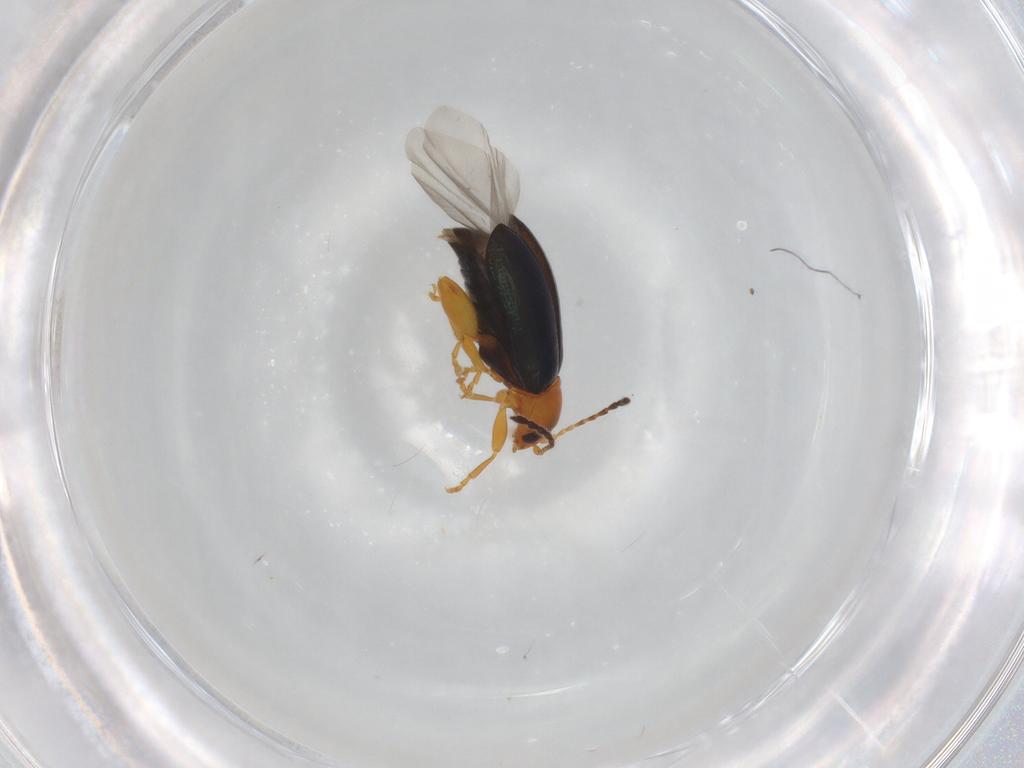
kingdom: Animalia
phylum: Arthropoda
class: Insecta
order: Coleoptera
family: Chrysomelidae
